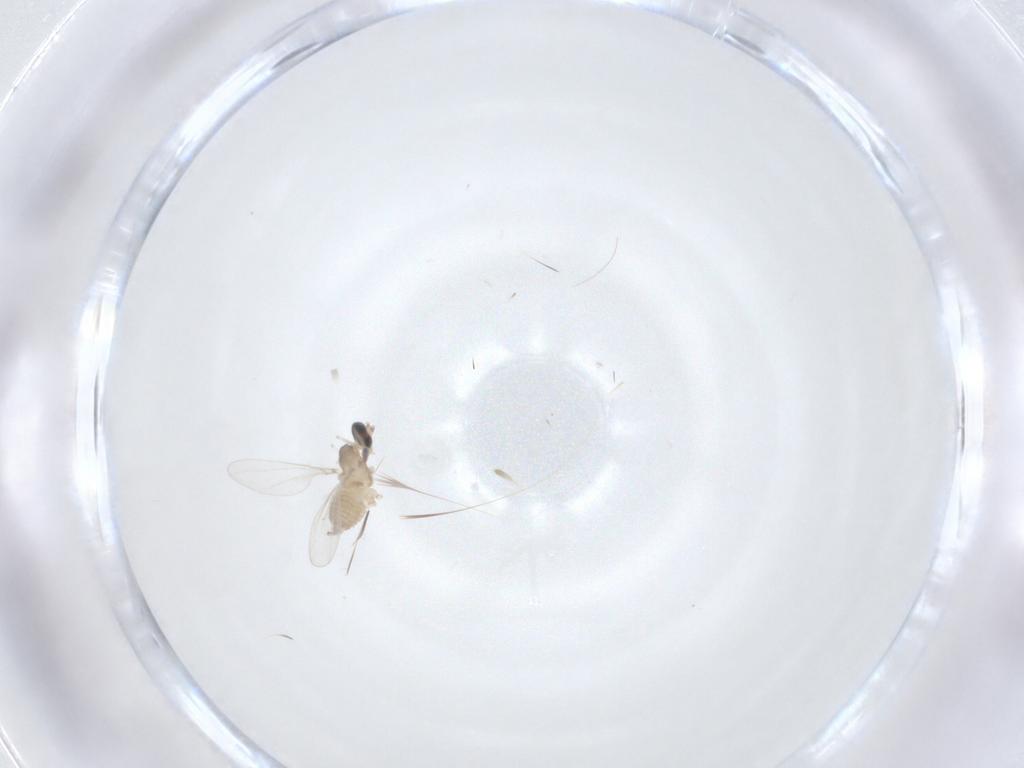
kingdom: Animalia
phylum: Arthropoda
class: Insecta
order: Diptera
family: Cecidomyiidae
